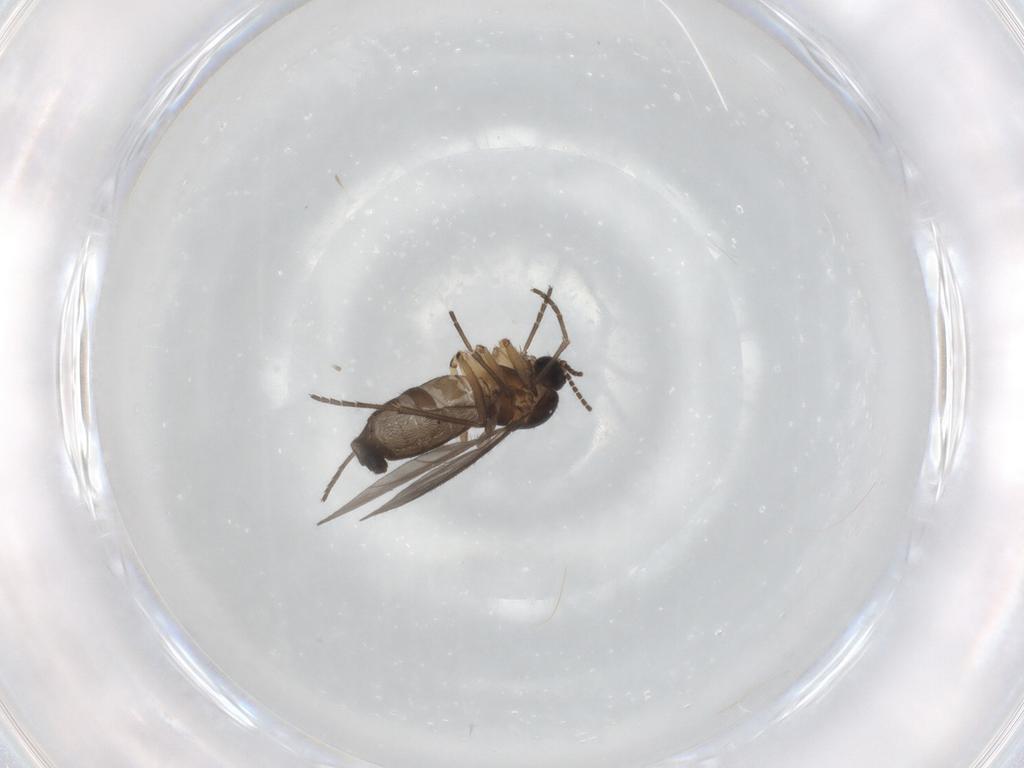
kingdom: Animalia
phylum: Arthropoda
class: Insecta
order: Diptera
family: Sciaridae
